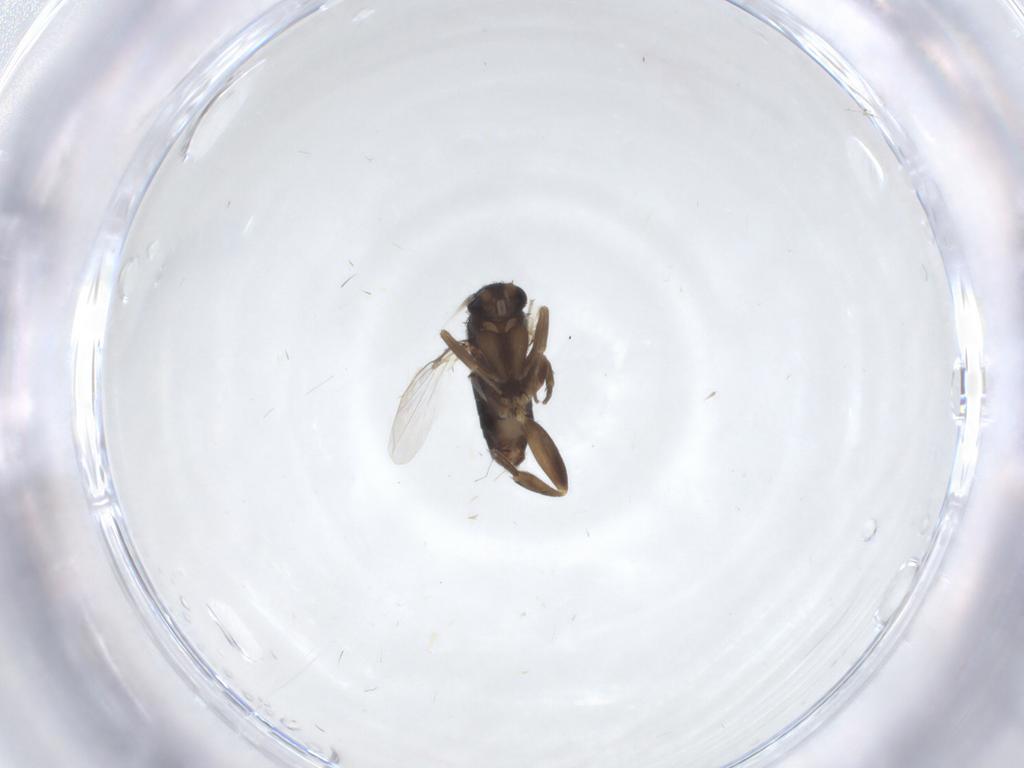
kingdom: Animalia
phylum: Arthropoda
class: Insecta
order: Diptera
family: Phoridae
